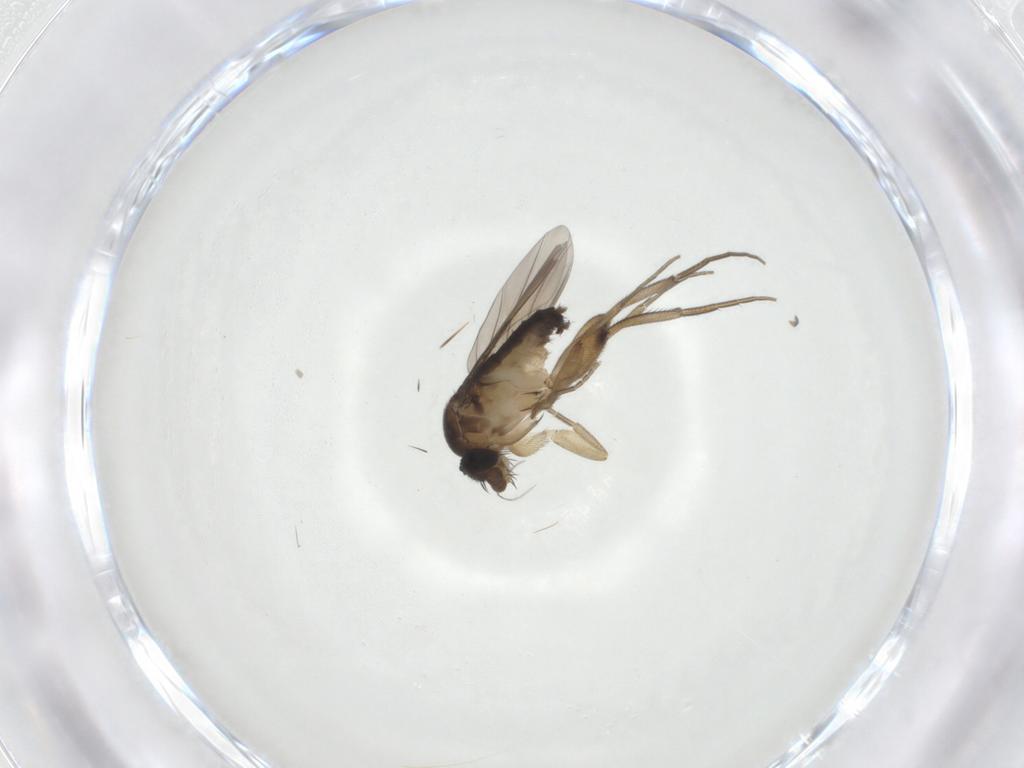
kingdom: Animalia
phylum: Arthropoda
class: Insecta
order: Diptera
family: Phoridae
